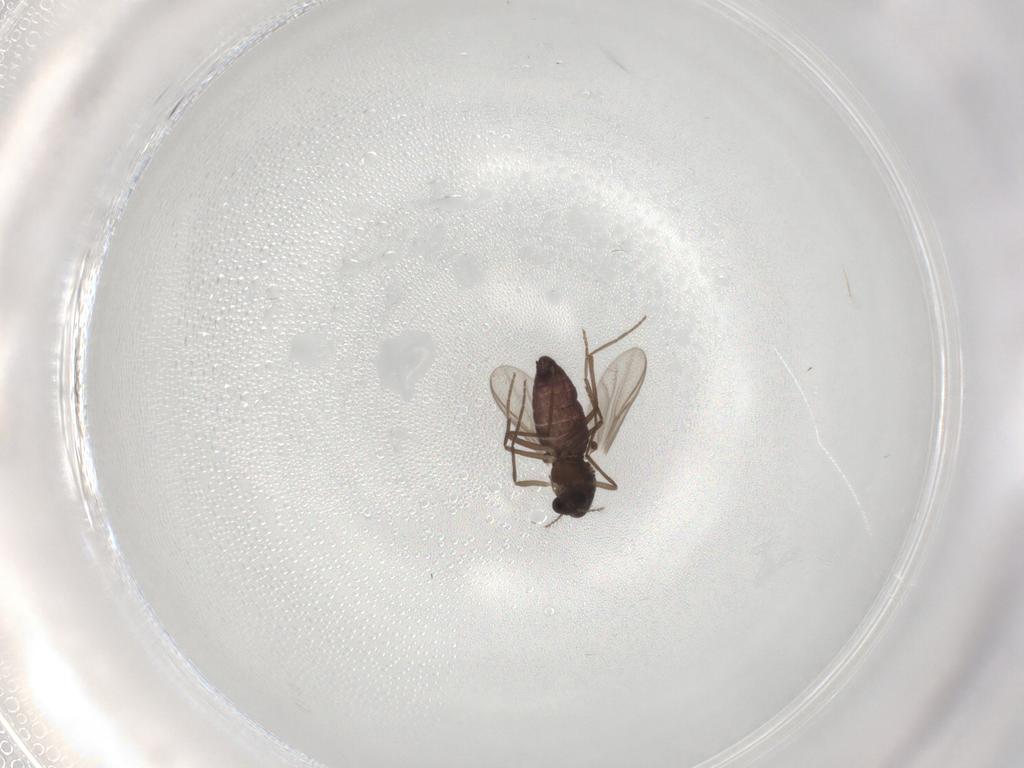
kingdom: Animalia
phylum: Arthropoda
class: Insecta
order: Diptera
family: Chironomidae
